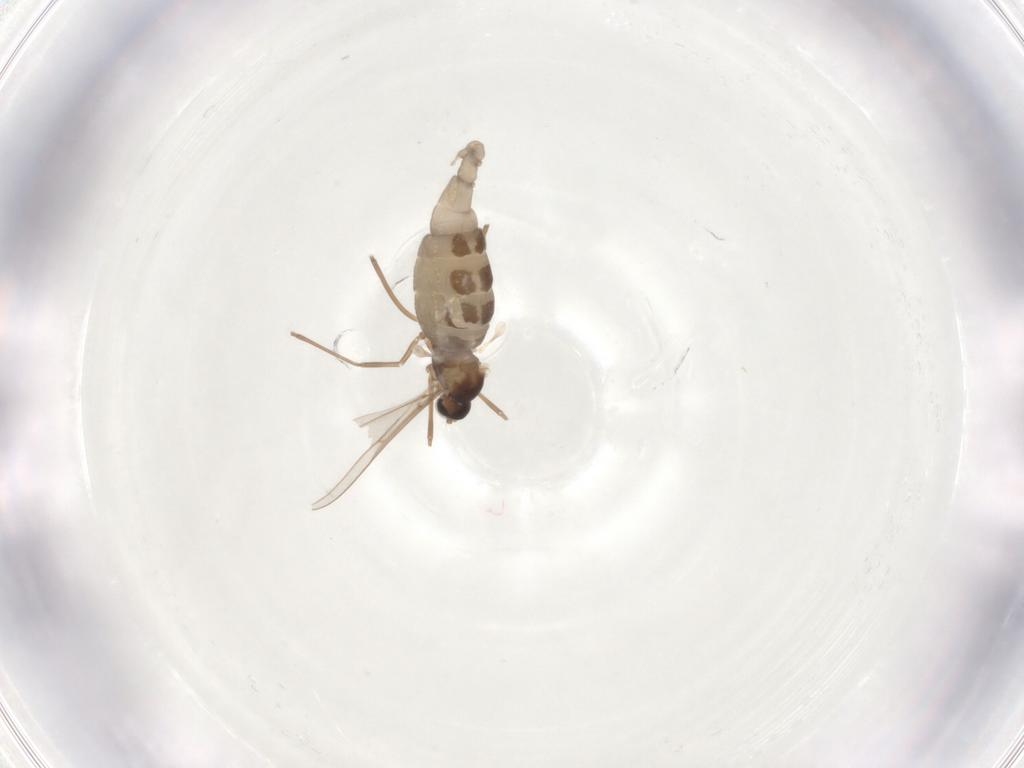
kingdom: Animalia
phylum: Arthropoda
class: Insecta
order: Diptera
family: Cecidomyiidae
